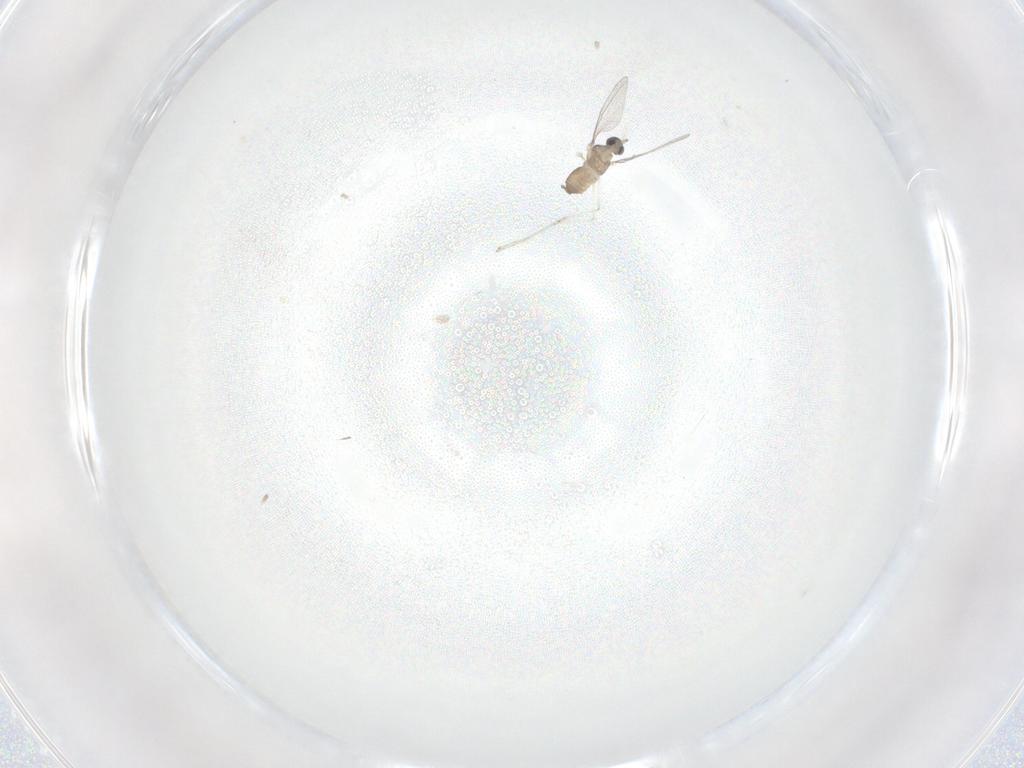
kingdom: Animalia
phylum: Arthropoda
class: Insecta
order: Diptera
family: Cecidomyiidae
